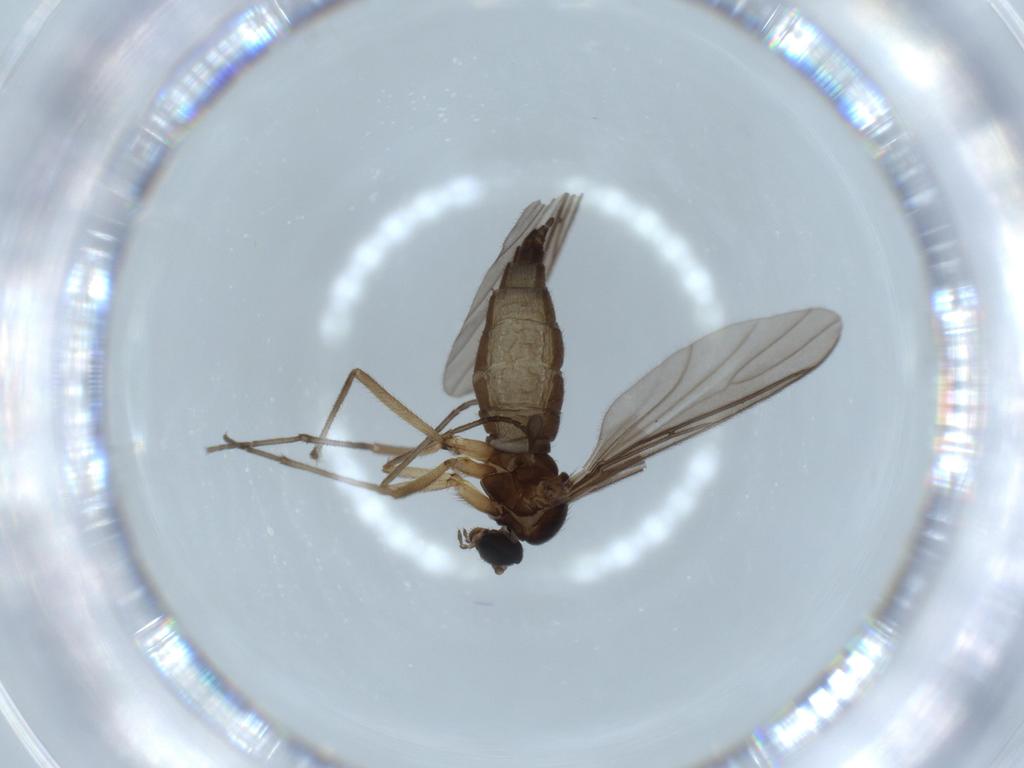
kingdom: Animalia
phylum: Arthropoda
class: Insecta
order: Diptera
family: Sciaridae
